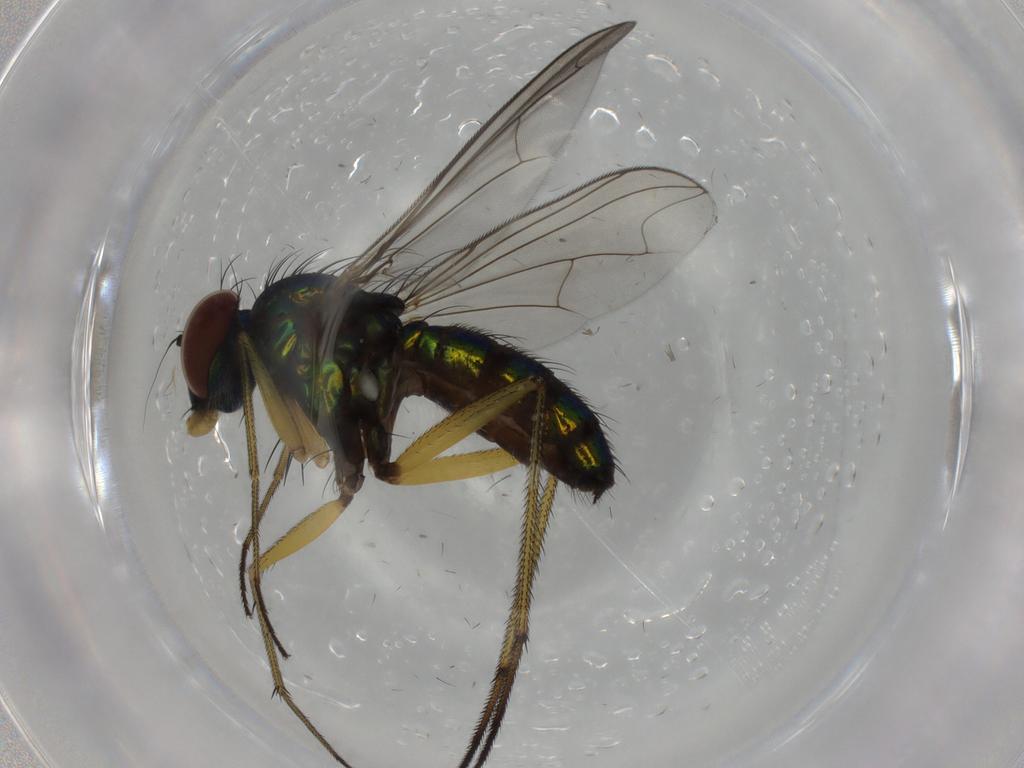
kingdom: Animalia
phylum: Arthropoda
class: Insecta
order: Diptera
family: Dolichopodidae
